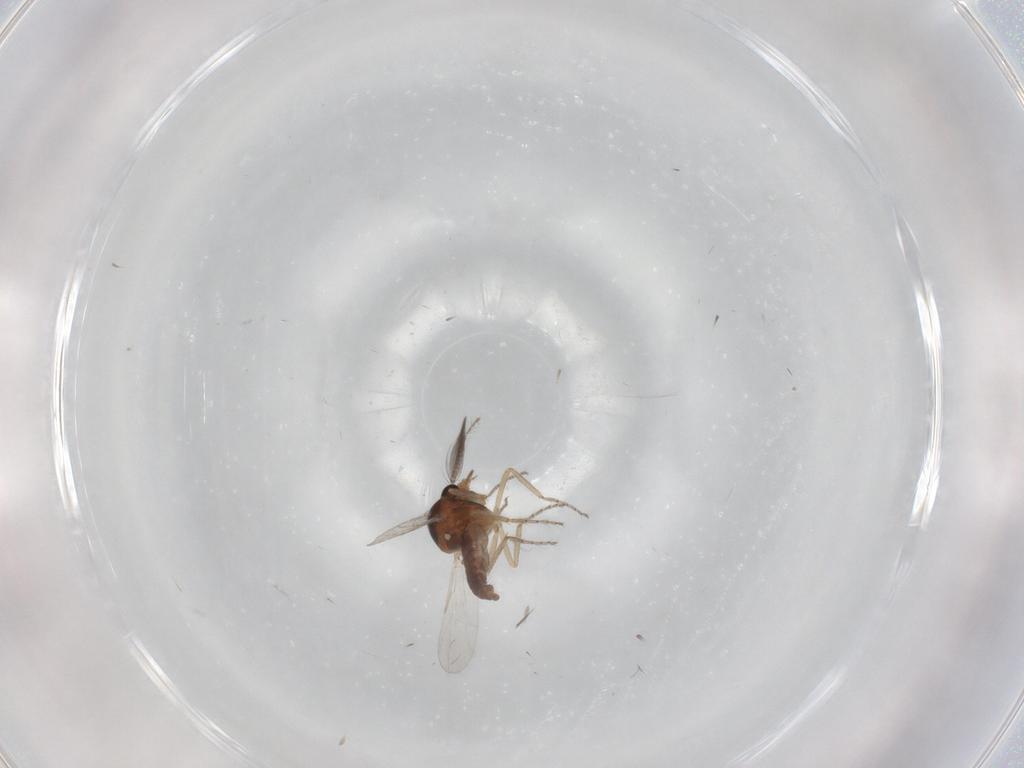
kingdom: Animalia
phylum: Arthropoda
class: Insecta
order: Diptera
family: Ceratopogonidae
